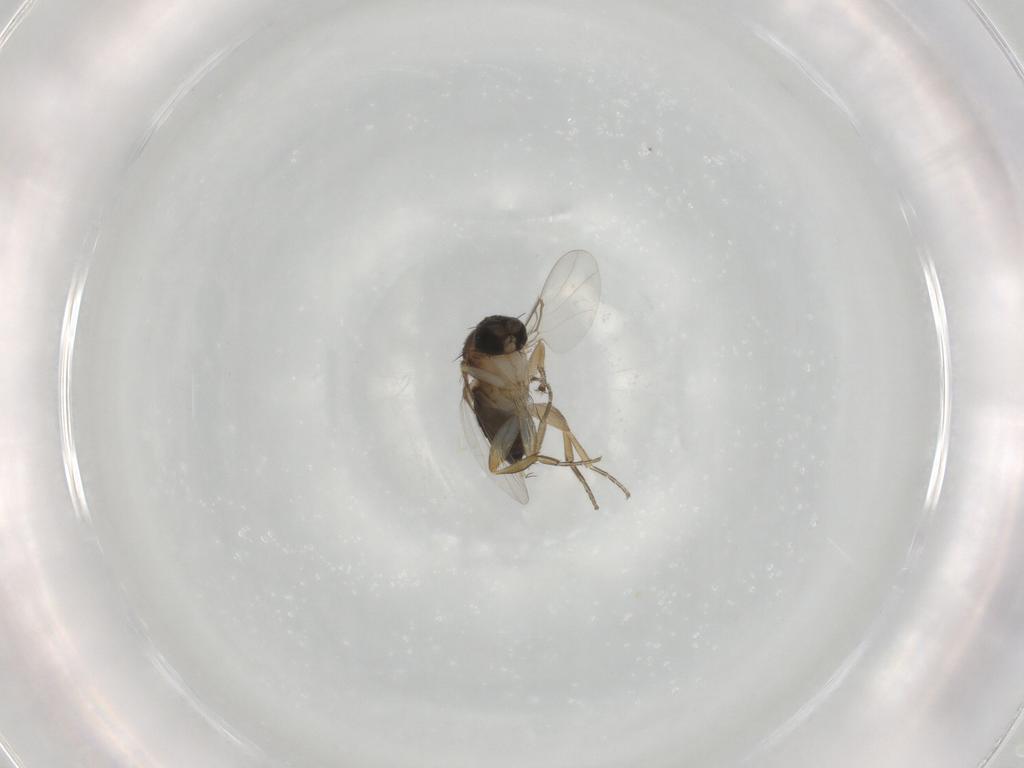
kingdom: Animalia
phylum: Arthropoda
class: Insecta
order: Diptera
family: Phoridae
